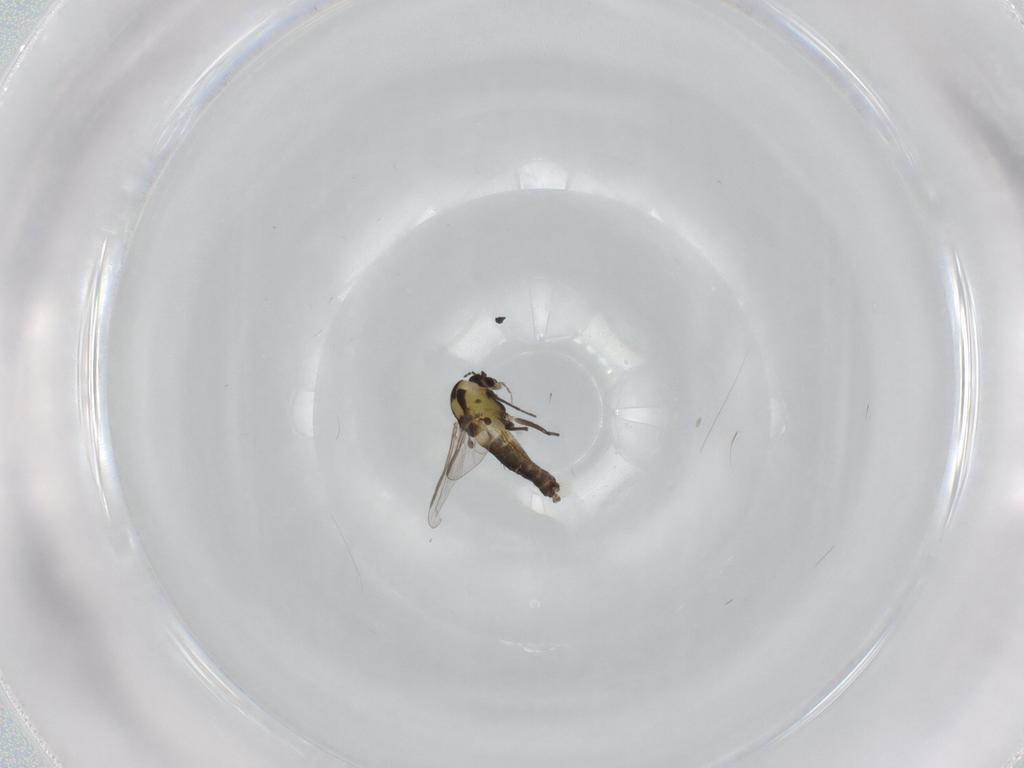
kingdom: Animalia
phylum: Arthropoda
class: Insecta
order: Diptera
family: Chironomidae
